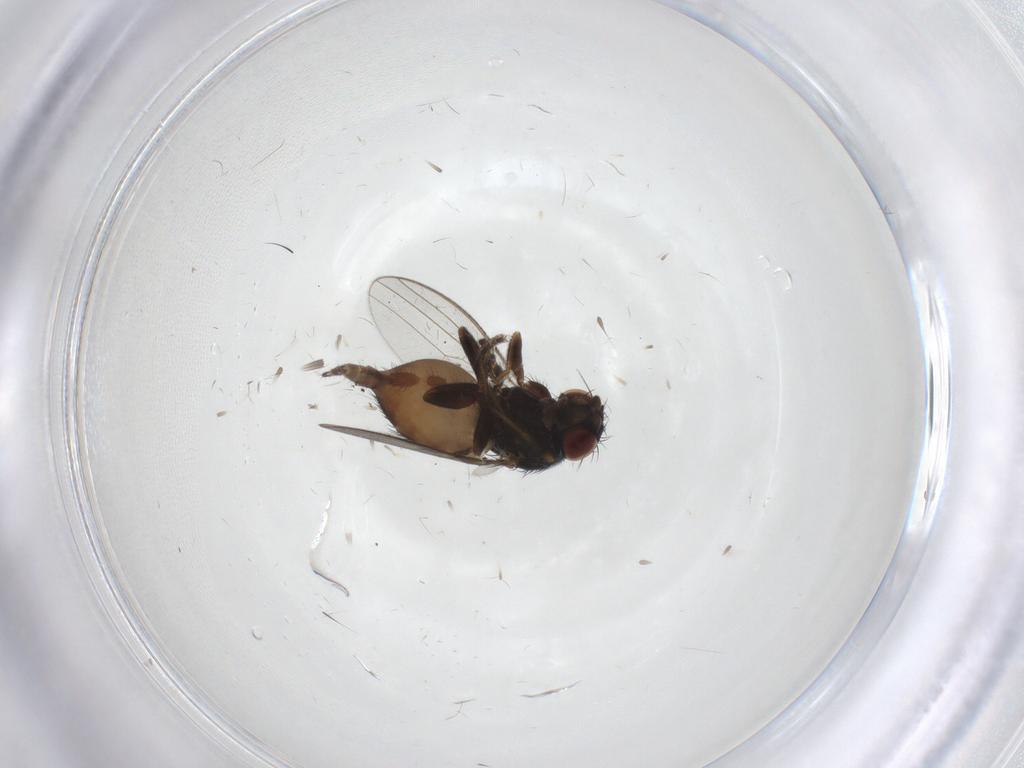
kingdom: Animalia
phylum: Arthropoda
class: Insecta
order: Diptera
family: Milichiidae
